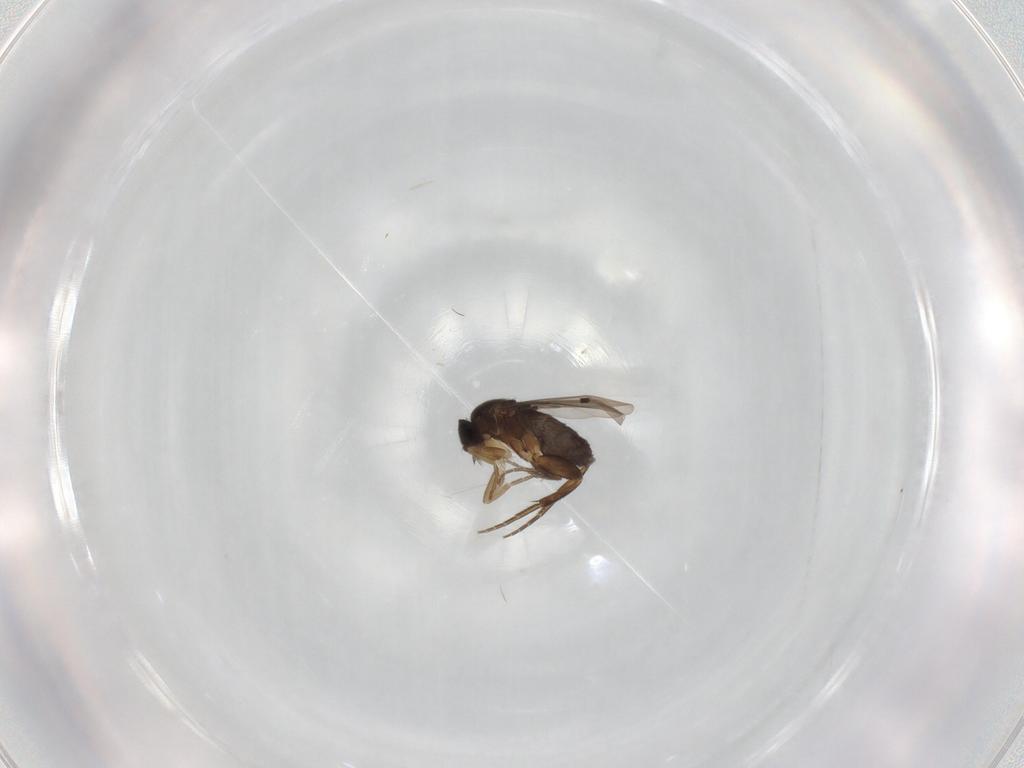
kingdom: Animalia
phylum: Arthropoda
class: Insecta
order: Diptera
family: Phoridae
